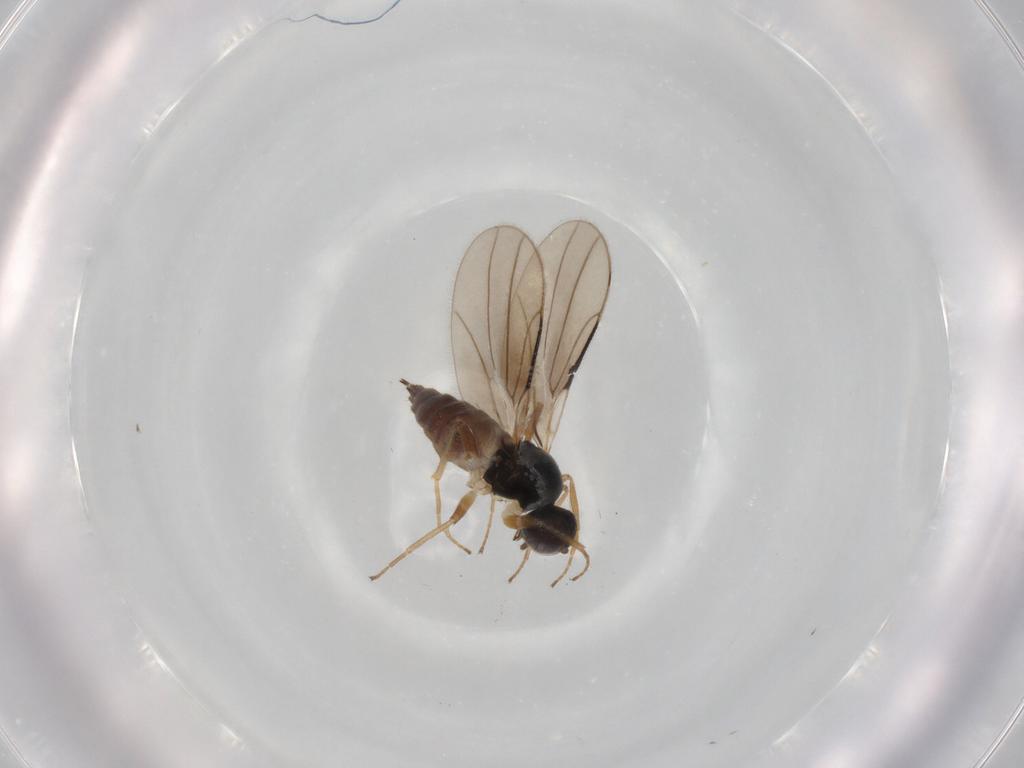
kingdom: Animalia
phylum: Arthropoda
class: Insecta
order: Diptera
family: Hybotidae
